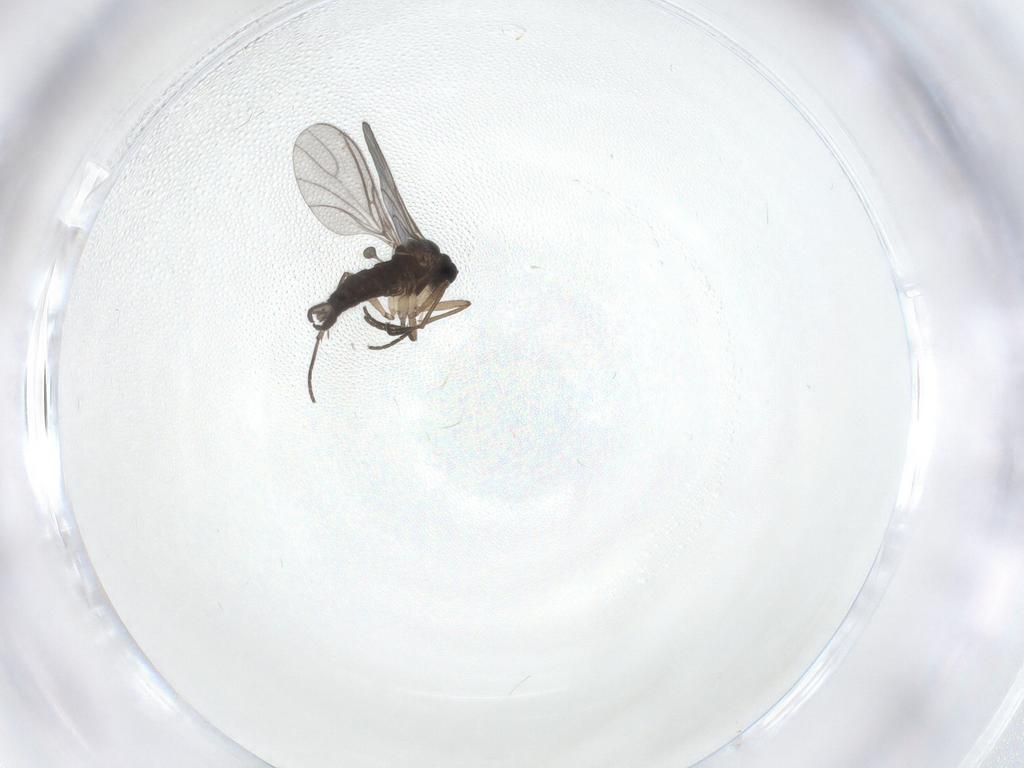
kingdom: Animalia
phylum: Arthropoda
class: Insecta
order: Diptera
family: Sciaridae
